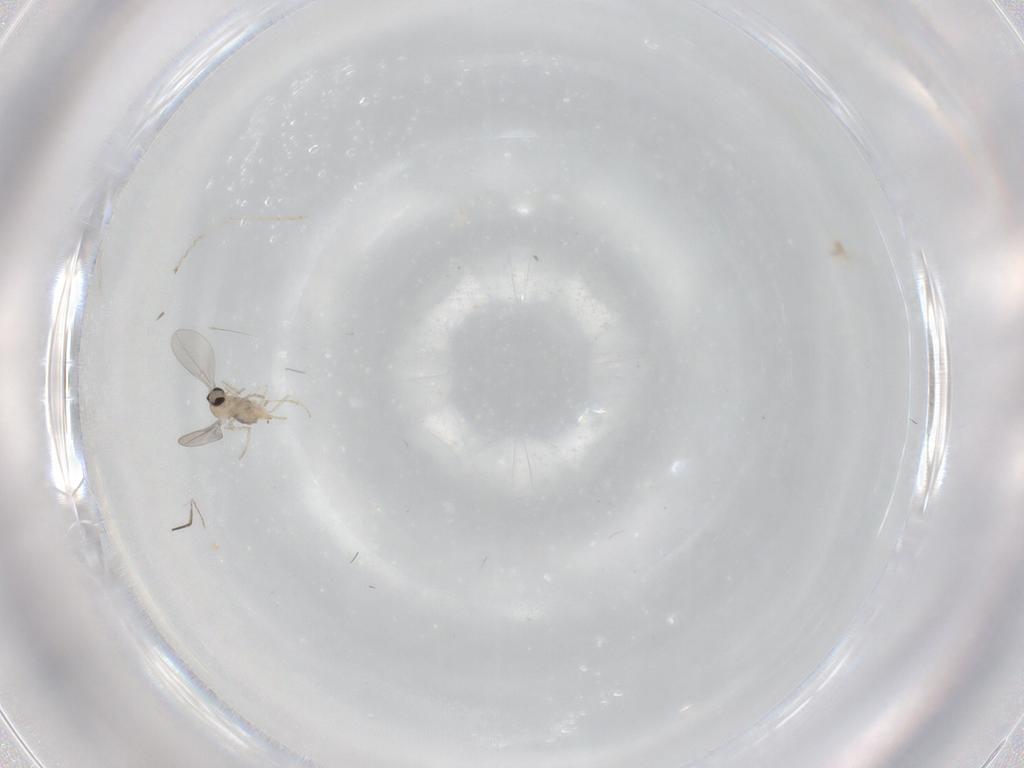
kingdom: Animalia
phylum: Arthropoda
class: Insecta
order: Diptera
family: Cecidomyiidae
